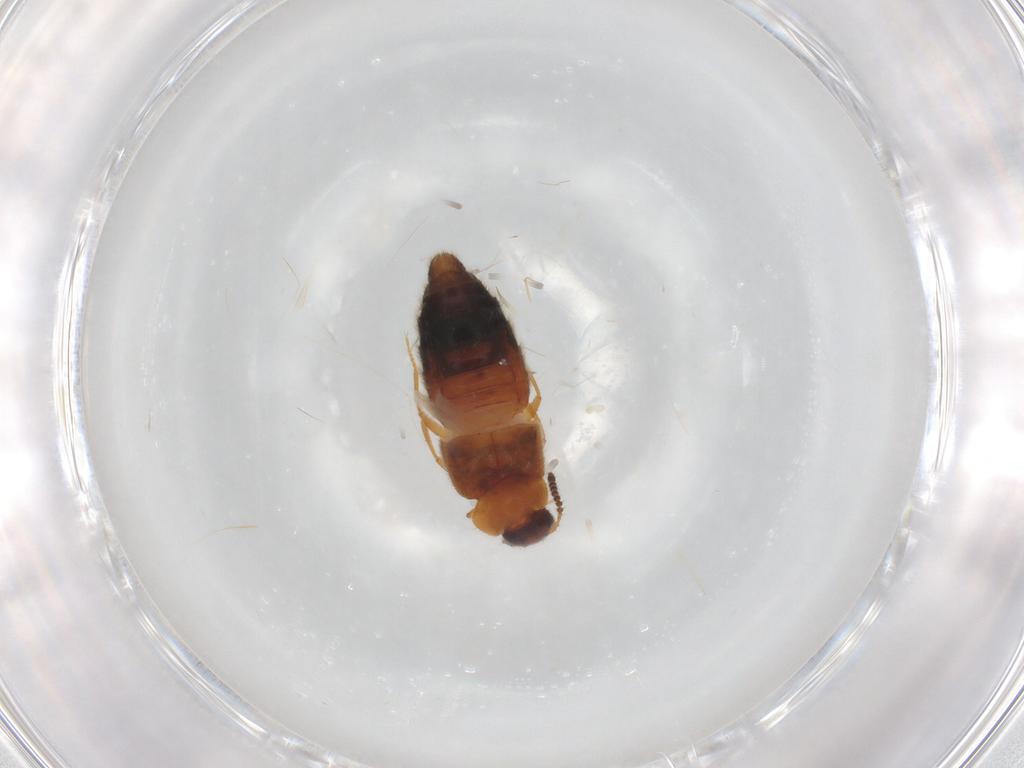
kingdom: Animalia
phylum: Arthropoda
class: Insecta
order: Coleoptera
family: Staphylinidae
